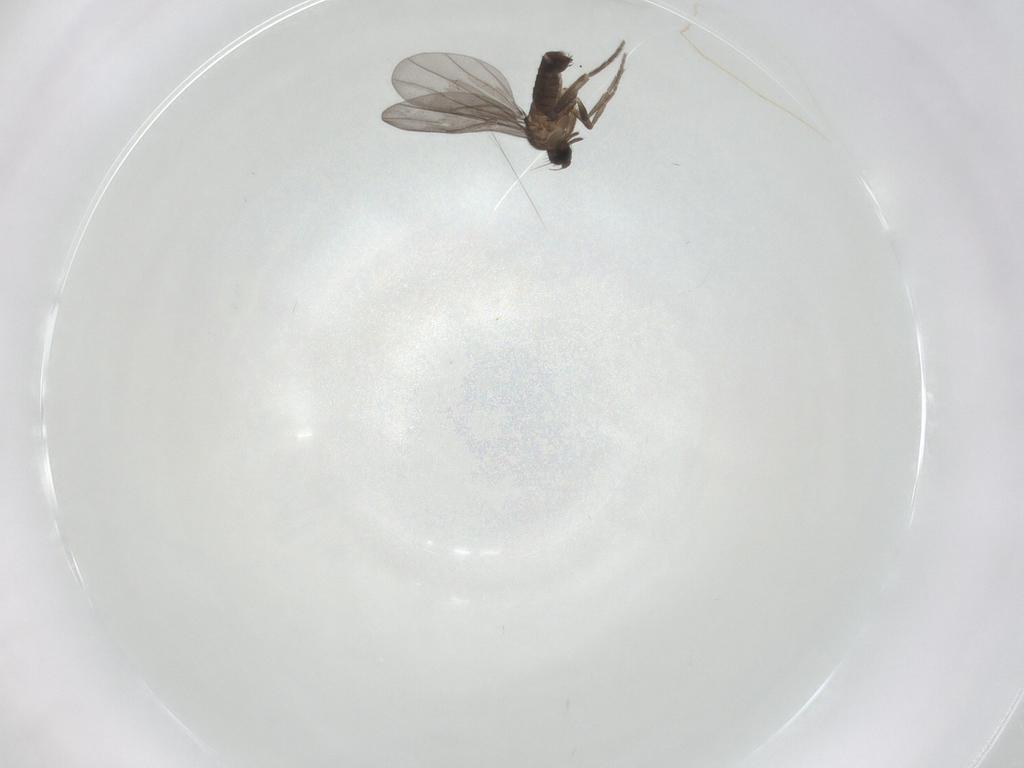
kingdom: Animalia
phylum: Arthropoda
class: Insecta
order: Diptera
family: Phoridae
